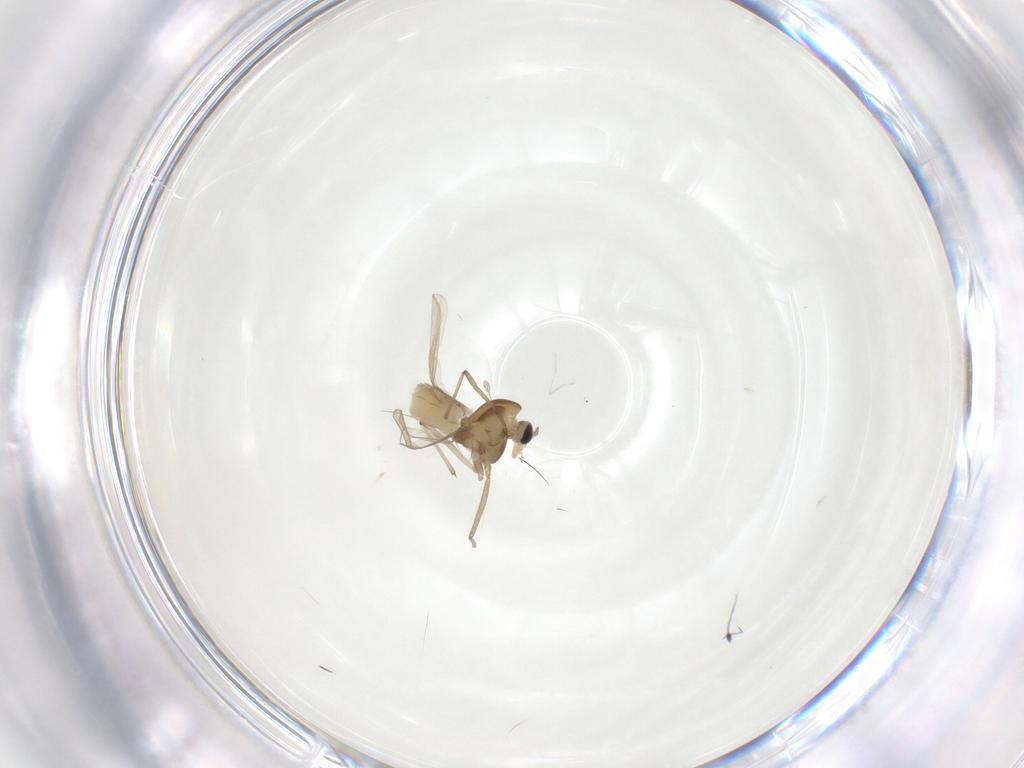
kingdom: Animalia
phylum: Arthropoda
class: Insecta
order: Diptera
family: Chironomidae
